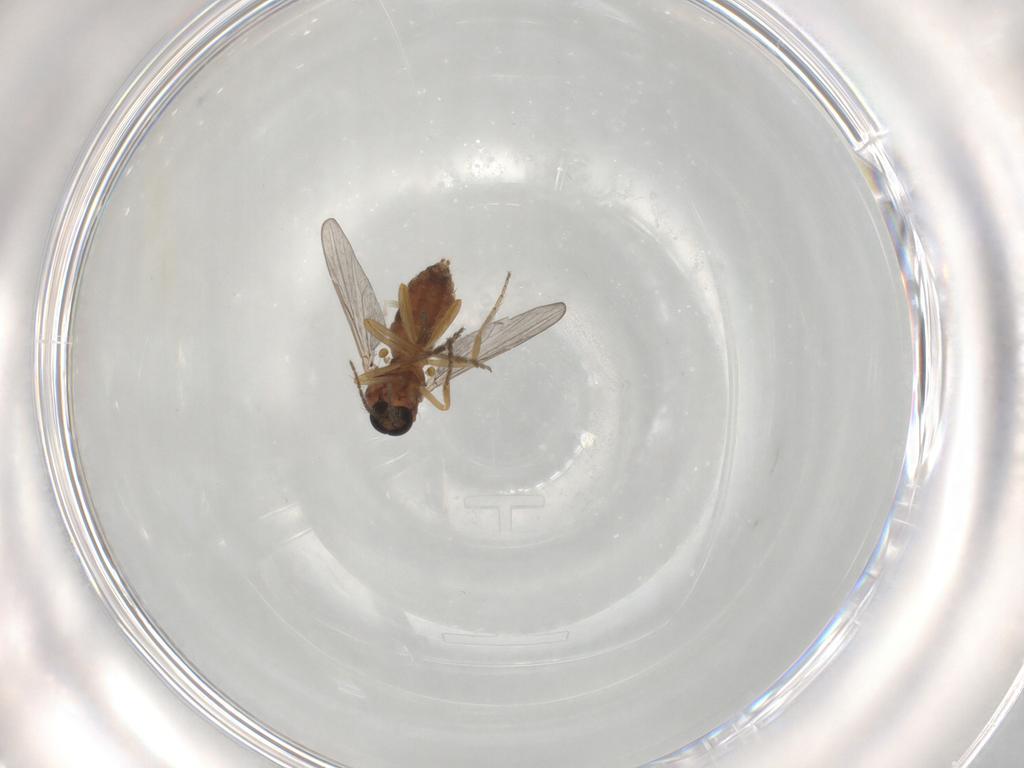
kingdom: Animalia
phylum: Arthropoda
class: Insecta
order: Diptera
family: Ceratopogonidae
